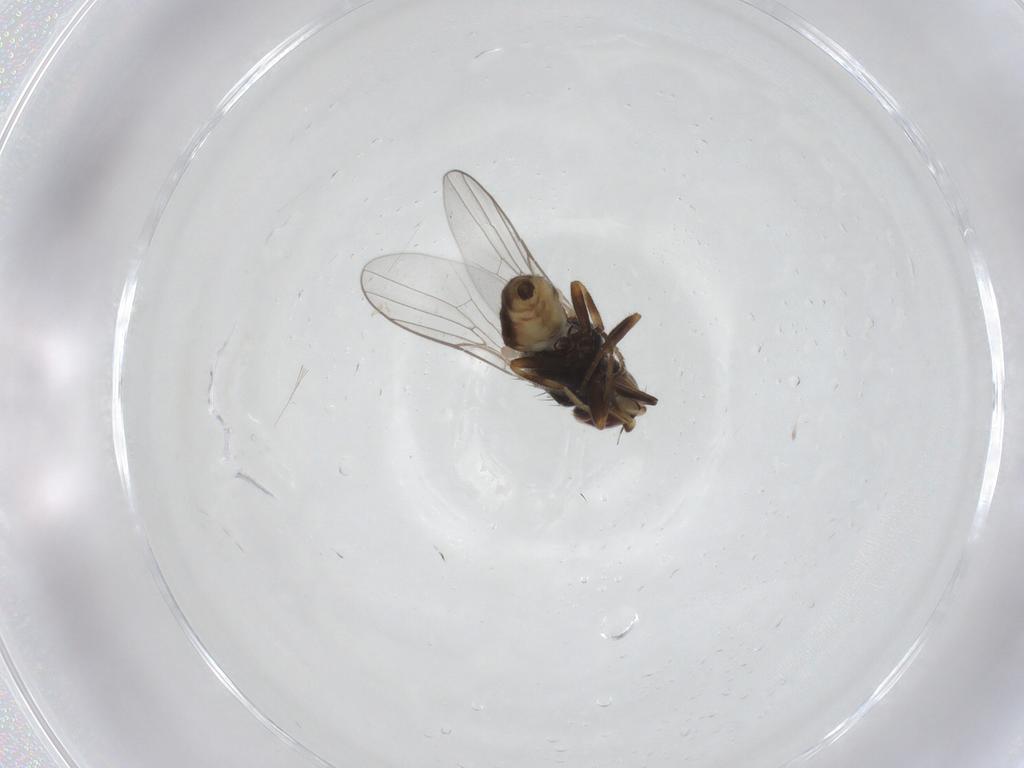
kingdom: Animalia
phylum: Arthropoda
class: Insecta
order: Diptera
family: Chloropidae
